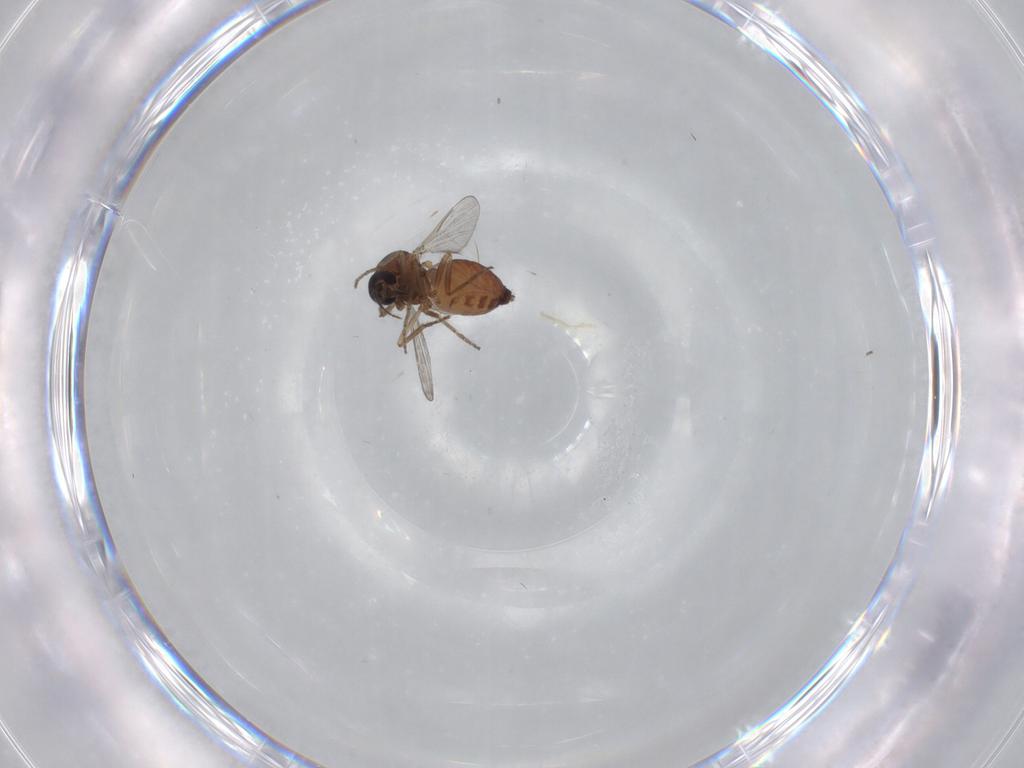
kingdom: Animalia
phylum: Arthropoda
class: Insecta
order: Diptera
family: Chironomidae
